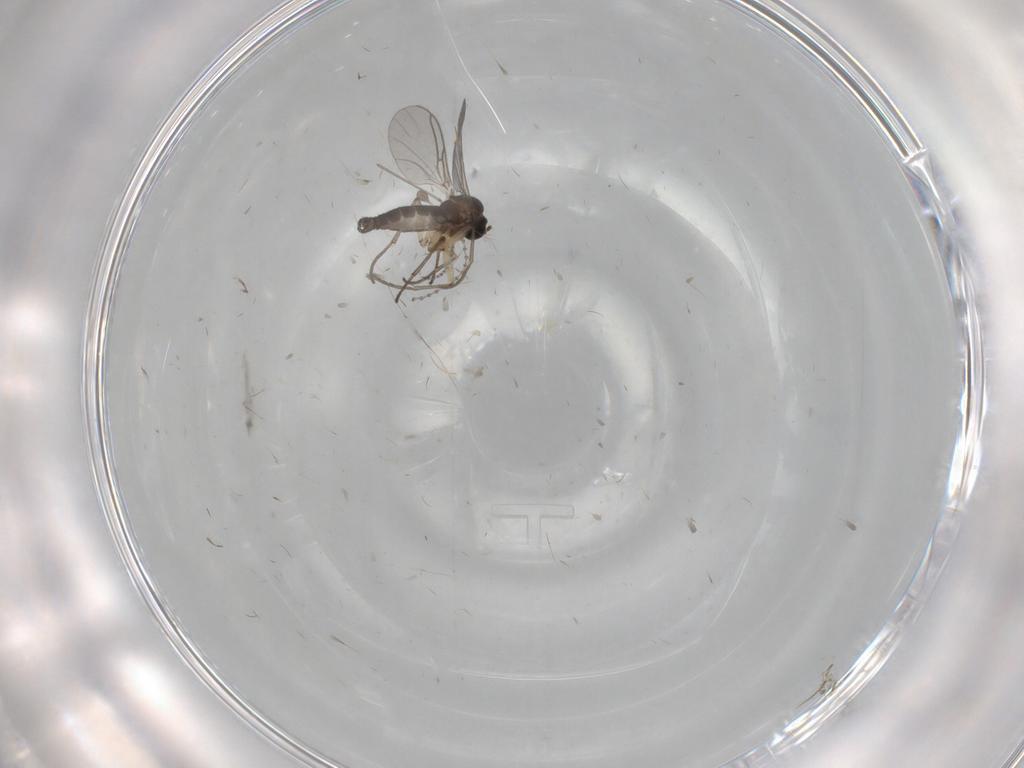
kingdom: Animalia
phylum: Arthropoda
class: Insecta
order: Diptera
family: Sciaridae
